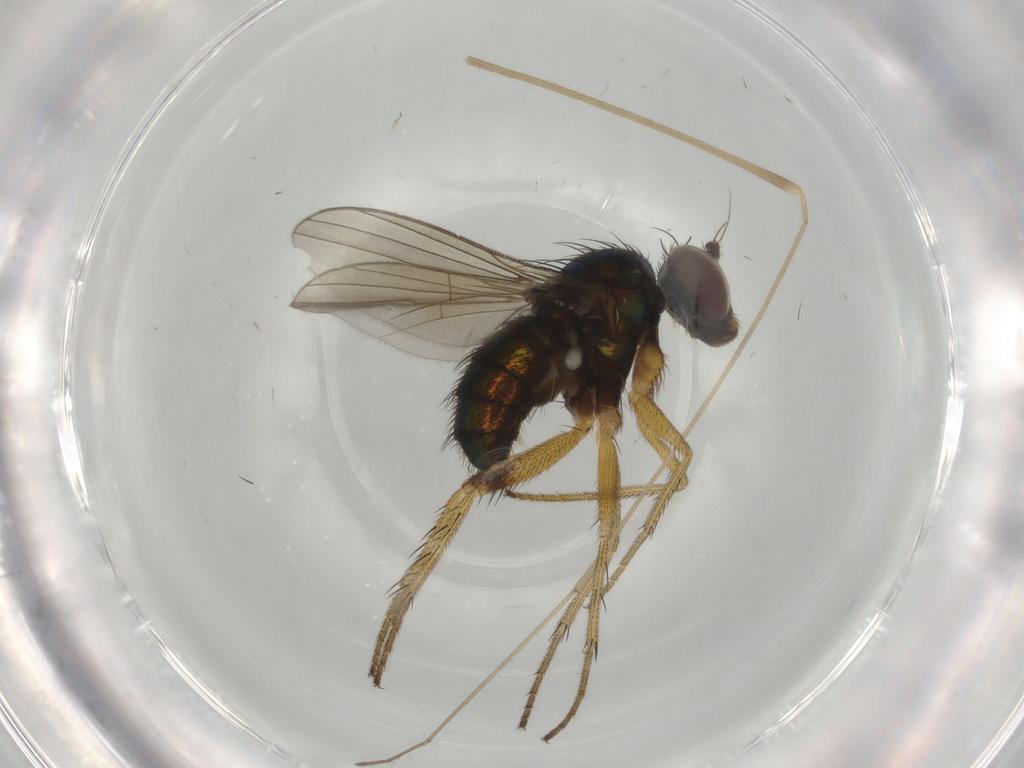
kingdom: Animalia
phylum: Arthropoda
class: Insecta
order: Diptera
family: Dolichopodidae
